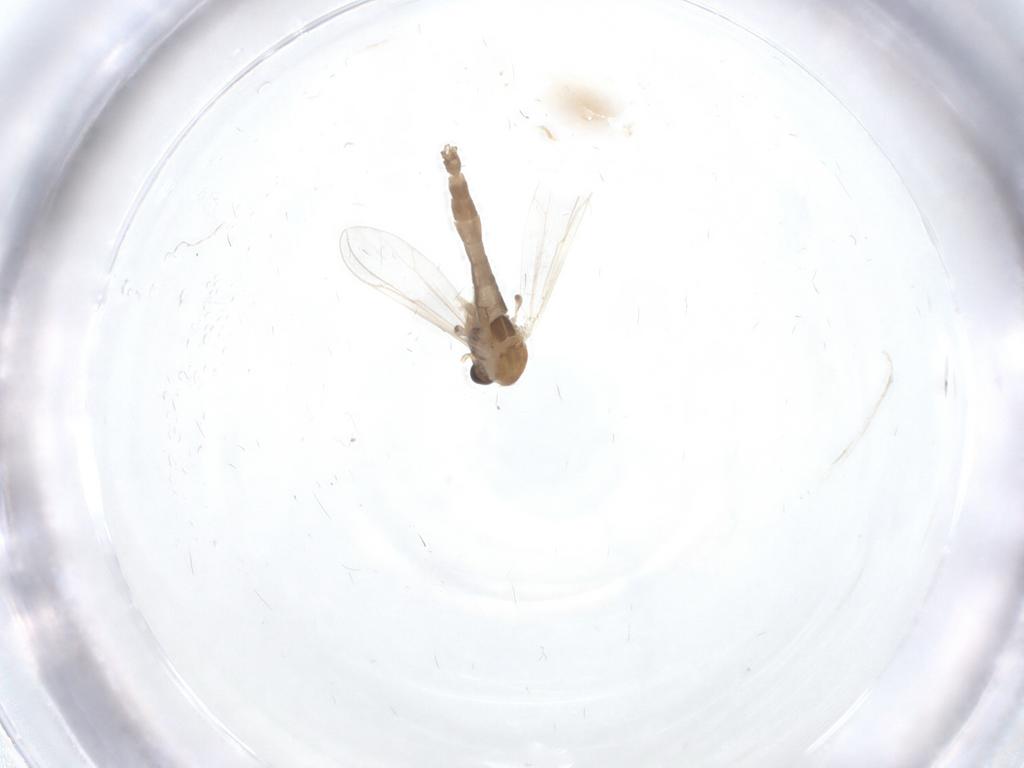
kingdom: Animalia
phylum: Arthropoda
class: Insecta
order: Diptera
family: Chironomidae
